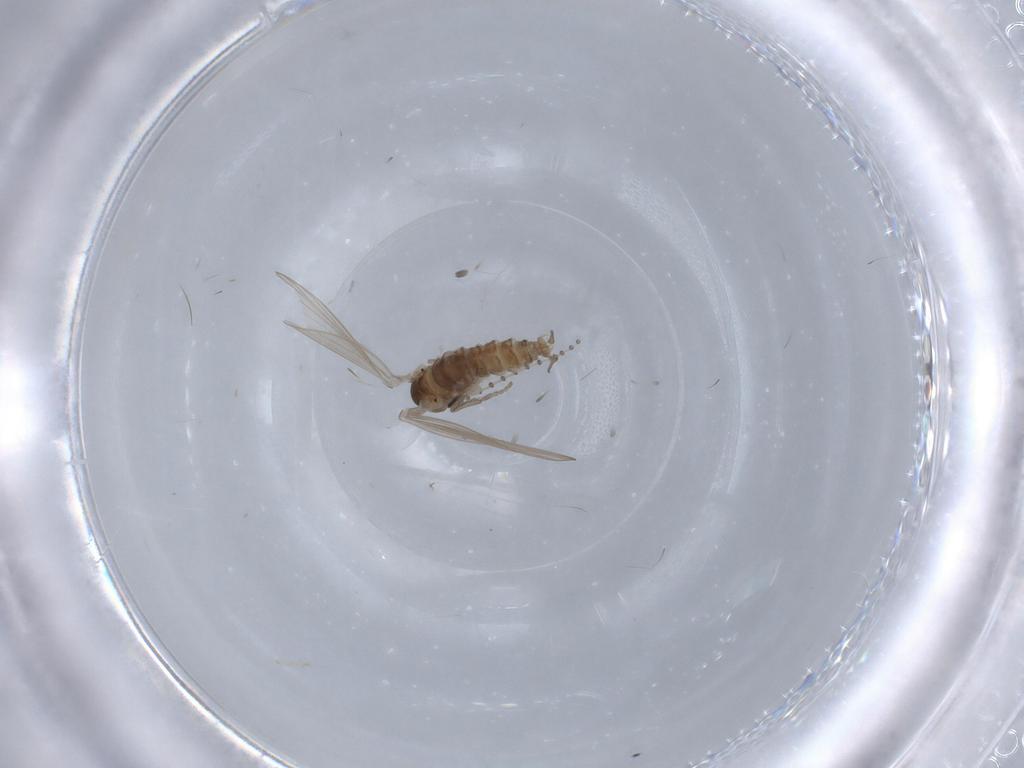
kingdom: Animalia
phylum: Arthropoda
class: Insecta
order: Diptera
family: Psychodidae
